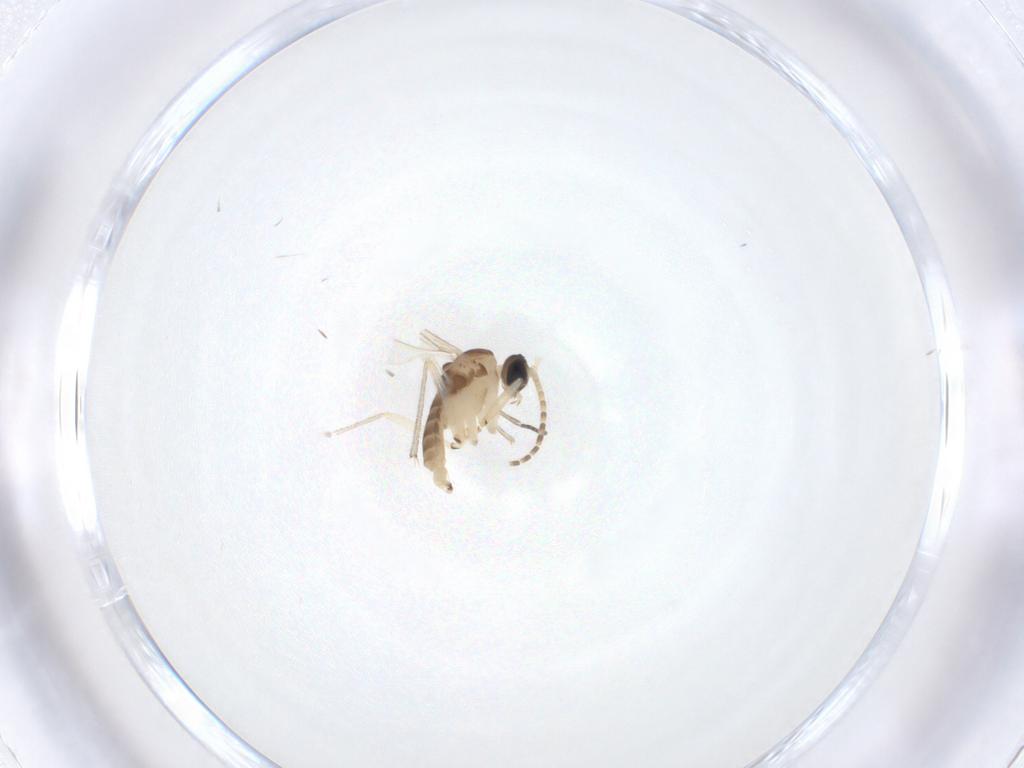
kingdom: Animalia
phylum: Arthropoda
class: Insecta
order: Diptera
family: Sciaridae
